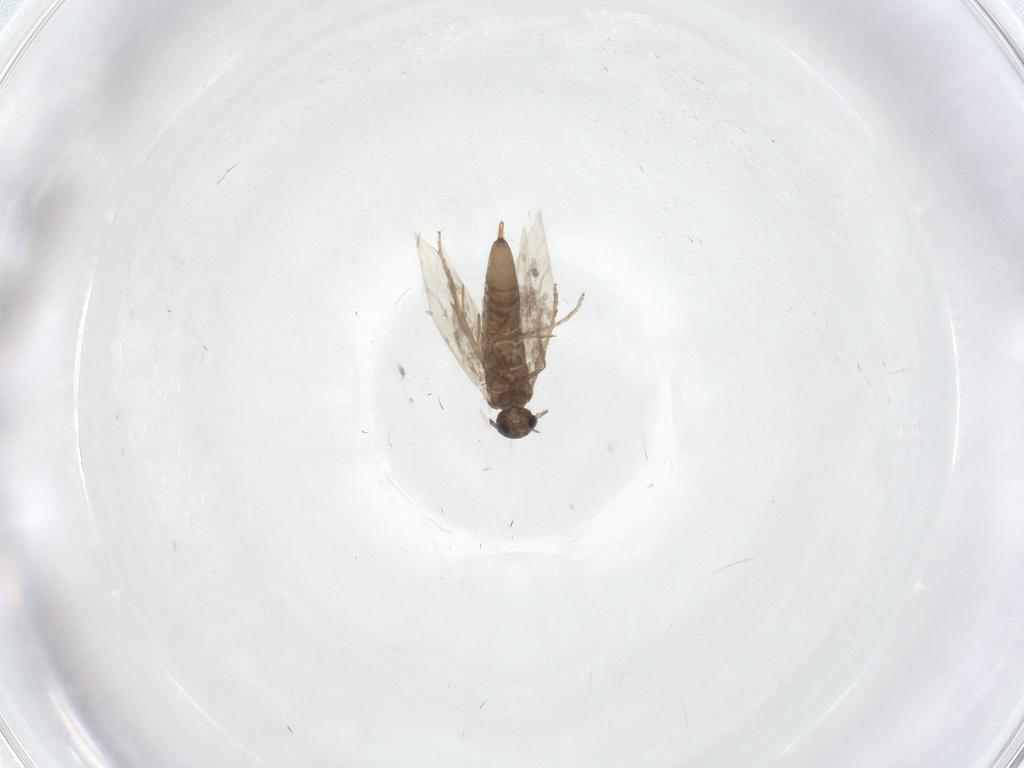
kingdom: Animalia
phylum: Arthropoda
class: Insecta
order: Lepidoptera
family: Heliozelidae
